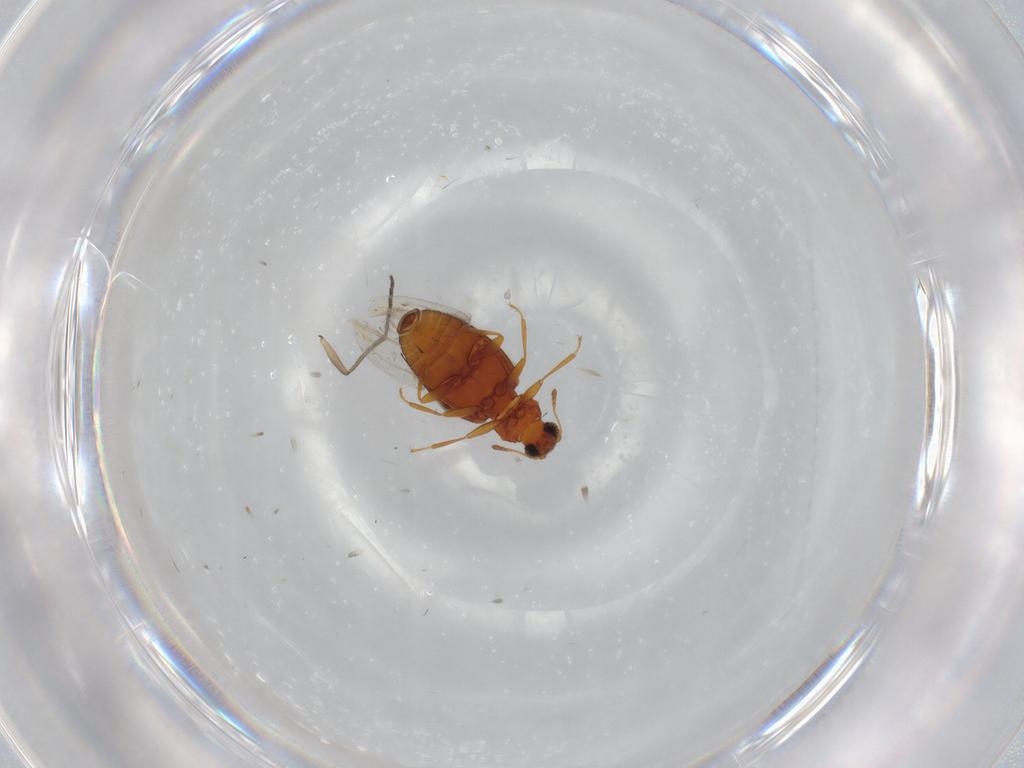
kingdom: Animalia
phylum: Arthropoda
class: Insecta
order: Coleoptera
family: Latridiidae
